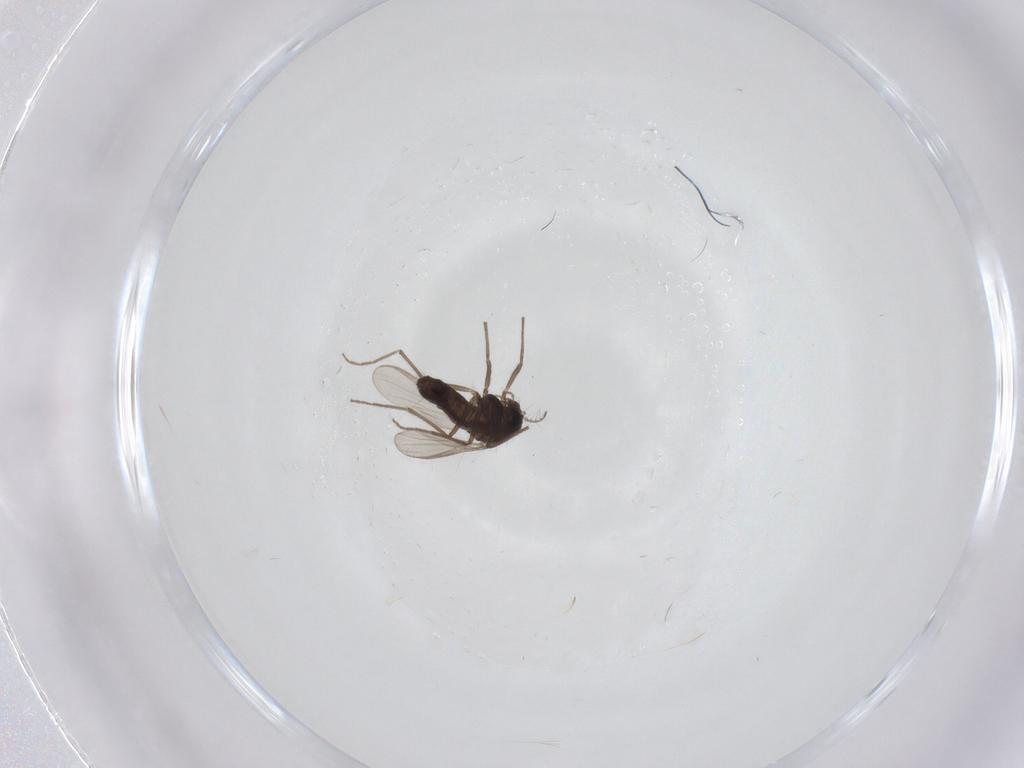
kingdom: Animalia
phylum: Arthropoda
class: Insecta
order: Diptera
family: Chironomidae
